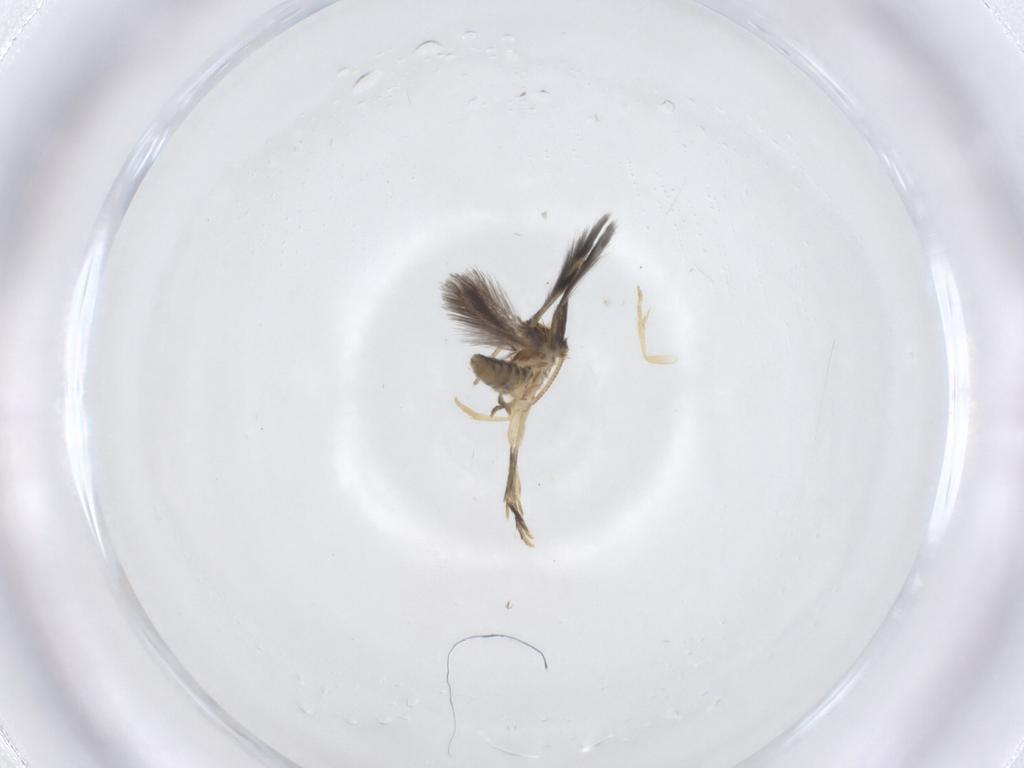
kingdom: Animalia
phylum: Arthropoda
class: Insecta
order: Lepidoptera
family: Nepticulidae
